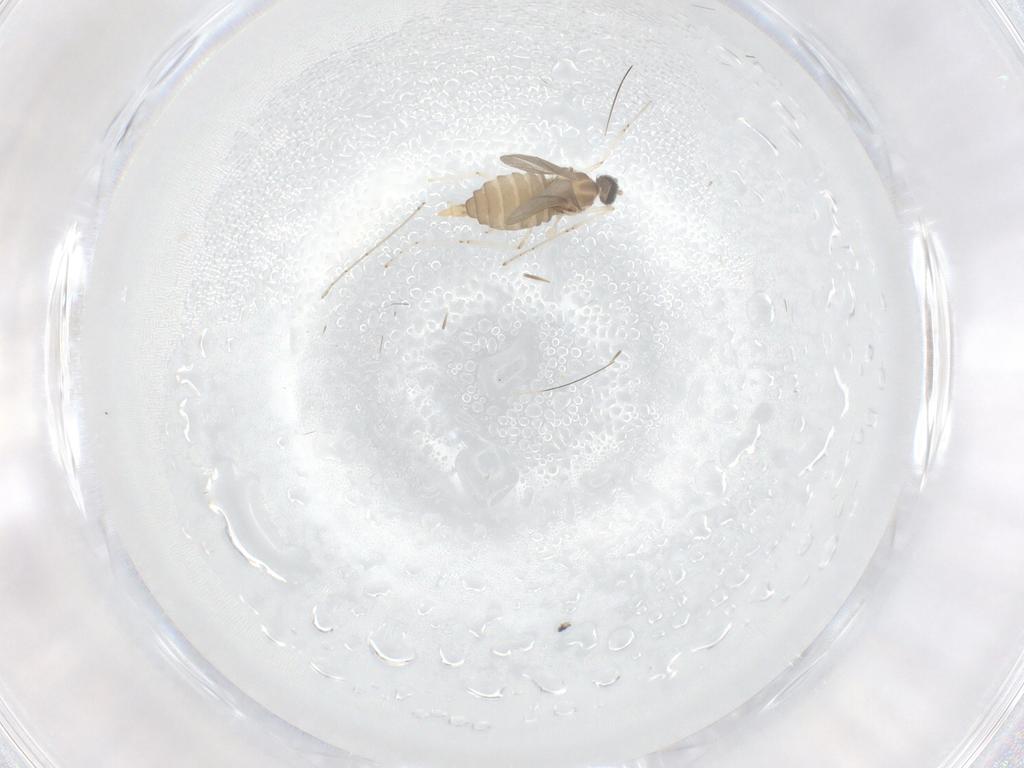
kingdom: Animalia
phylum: Arthropoda
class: Insecta
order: Diptera
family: Cecidomyiidae
